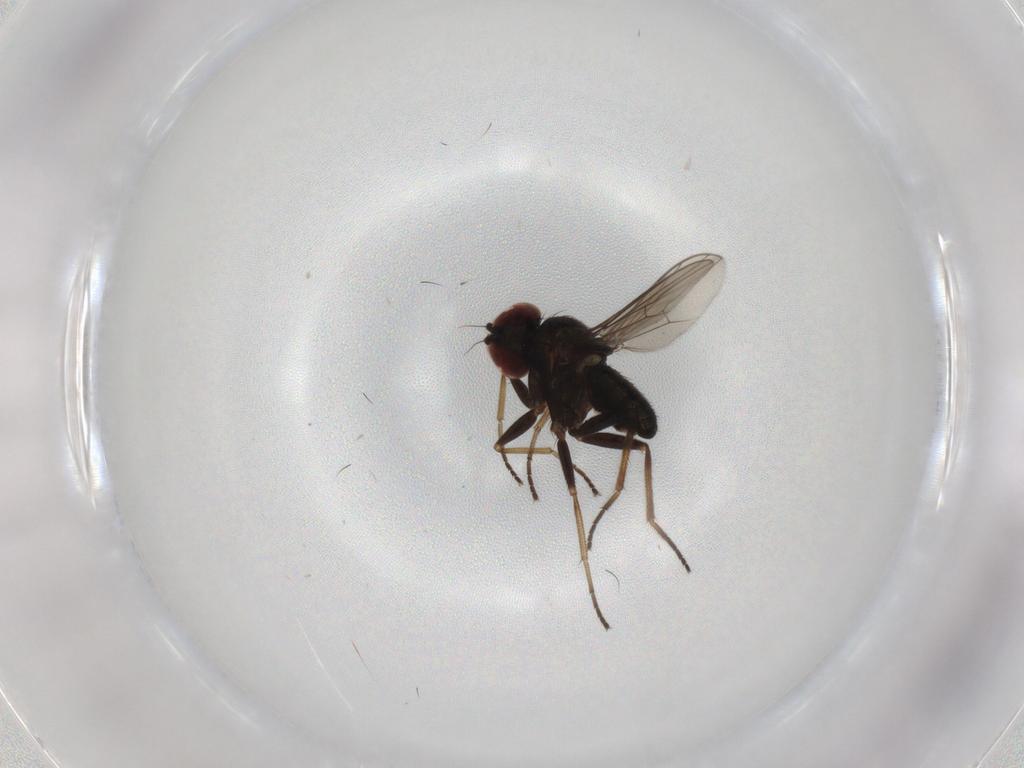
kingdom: Animalia
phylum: Arthropoda
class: Insecta
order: Diptera
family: Dolichopodidae
